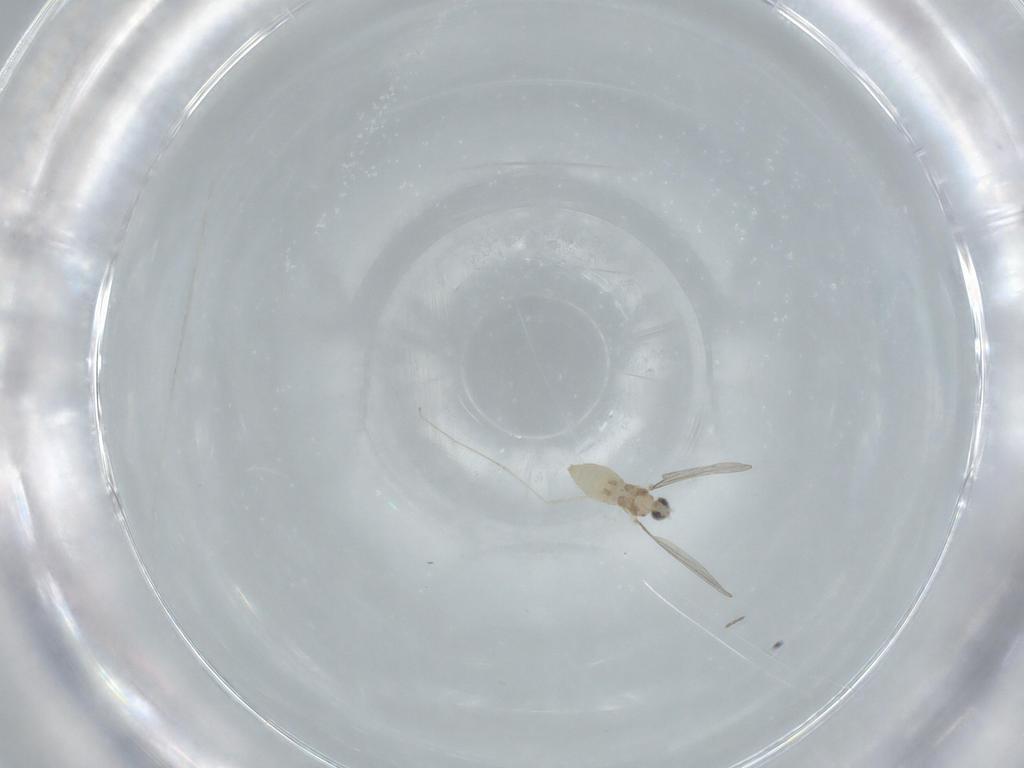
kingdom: Animalia
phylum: Arthropoda
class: Insecta
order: Diptera
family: Cecidomyiidae
